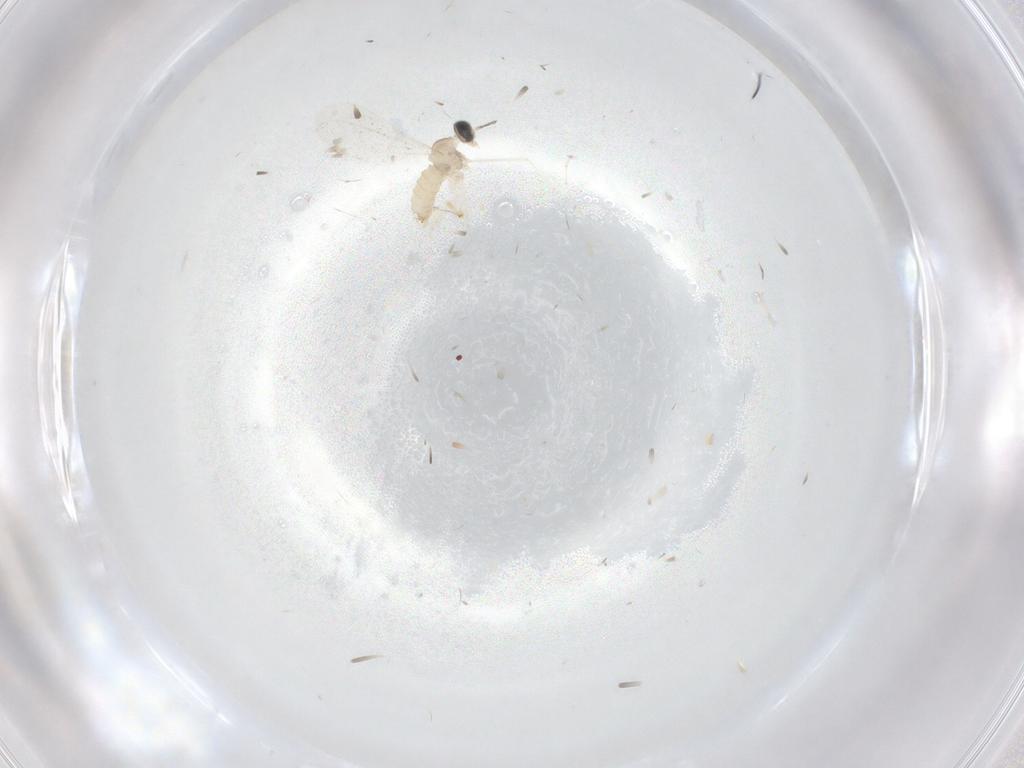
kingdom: Animalia
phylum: Arthropoda
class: Insecta
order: Diptera
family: Cecidomyiidae
